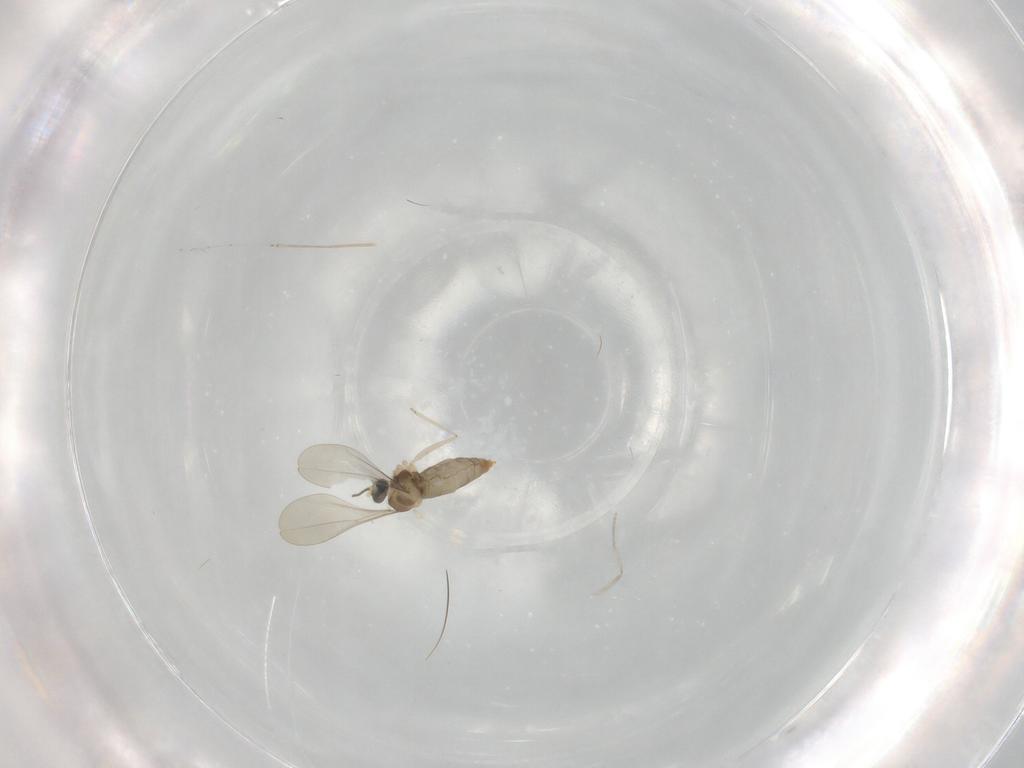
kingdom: Animalia
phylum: Arthropoda
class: Insecta
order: Diptera
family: Cecidomyiidae
